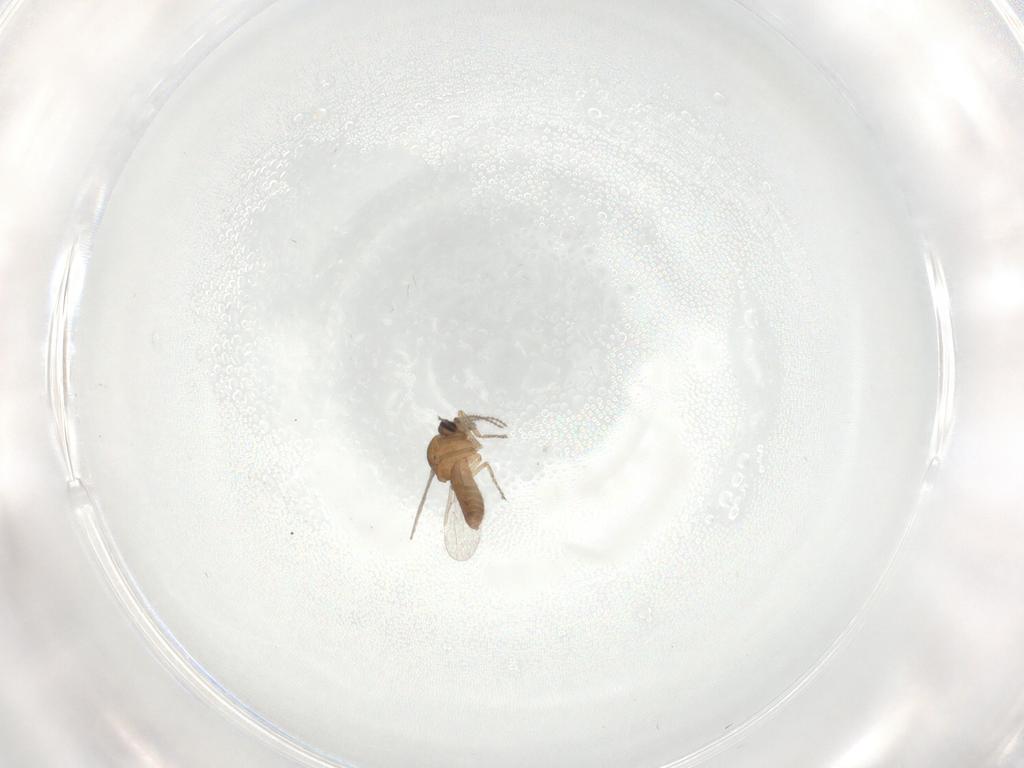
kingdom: Animalia
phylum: Arthropoda
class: Insecta
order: Diptera
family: Ceratopogonidae
